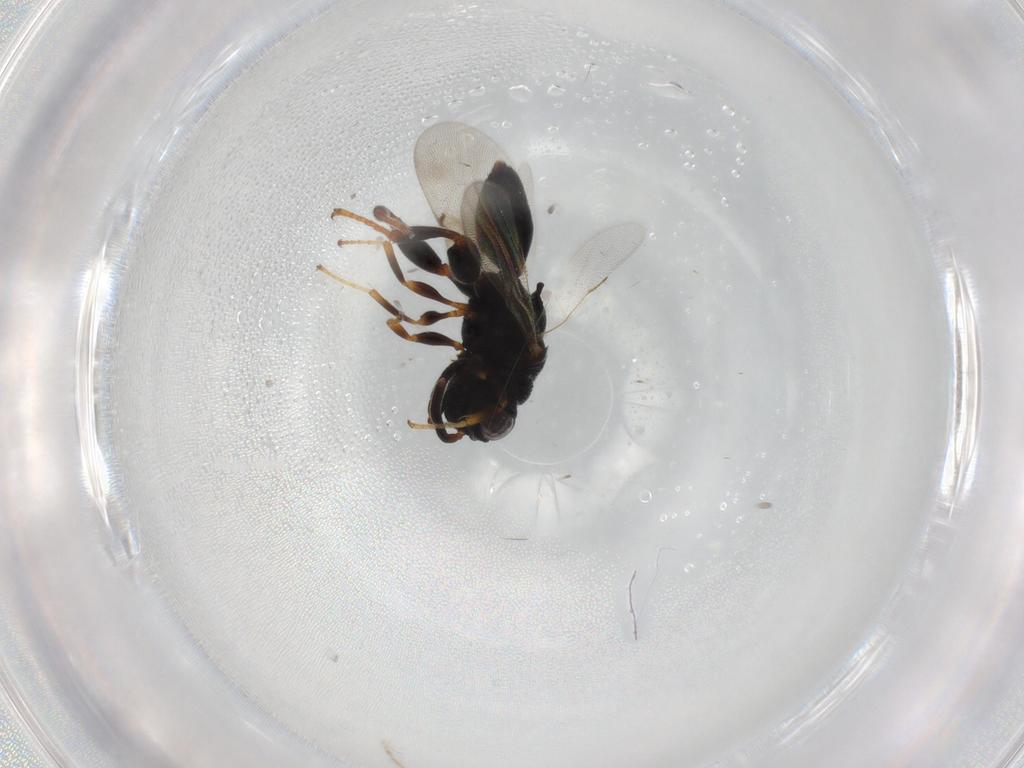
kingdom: Animalia
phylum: Arthropoda
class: Insecta
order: Hymenoptera
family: Chalcididae
